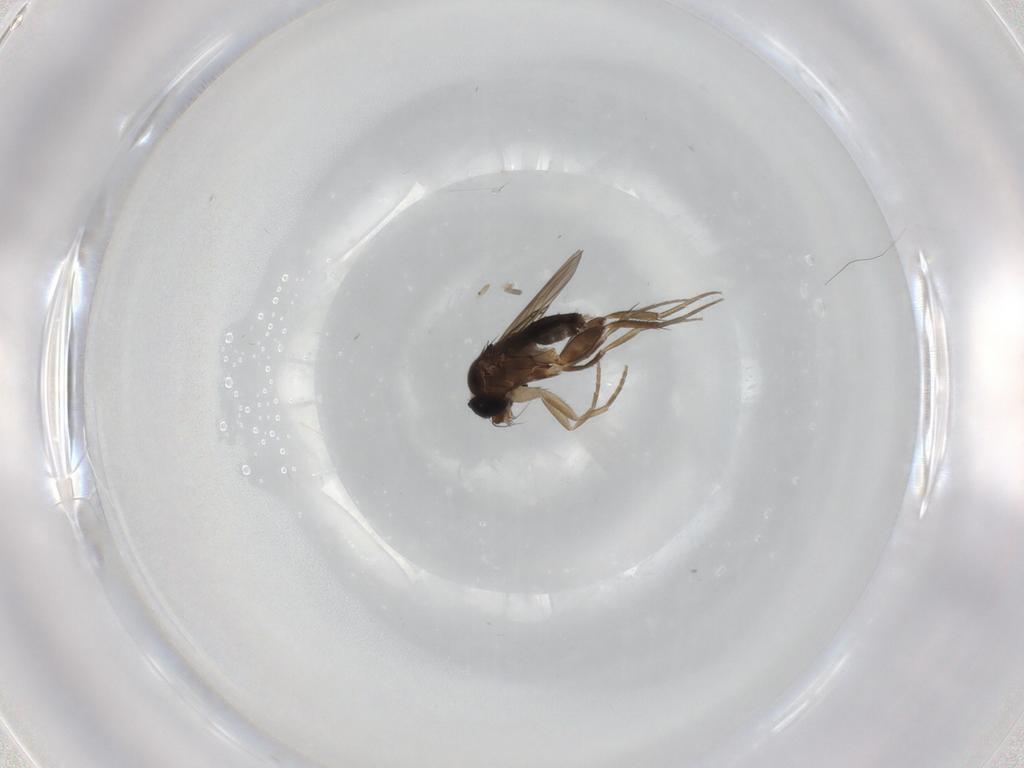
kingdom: Animalia
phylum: Arthropoda
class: Insecta
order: Diptera
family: Phoridae
